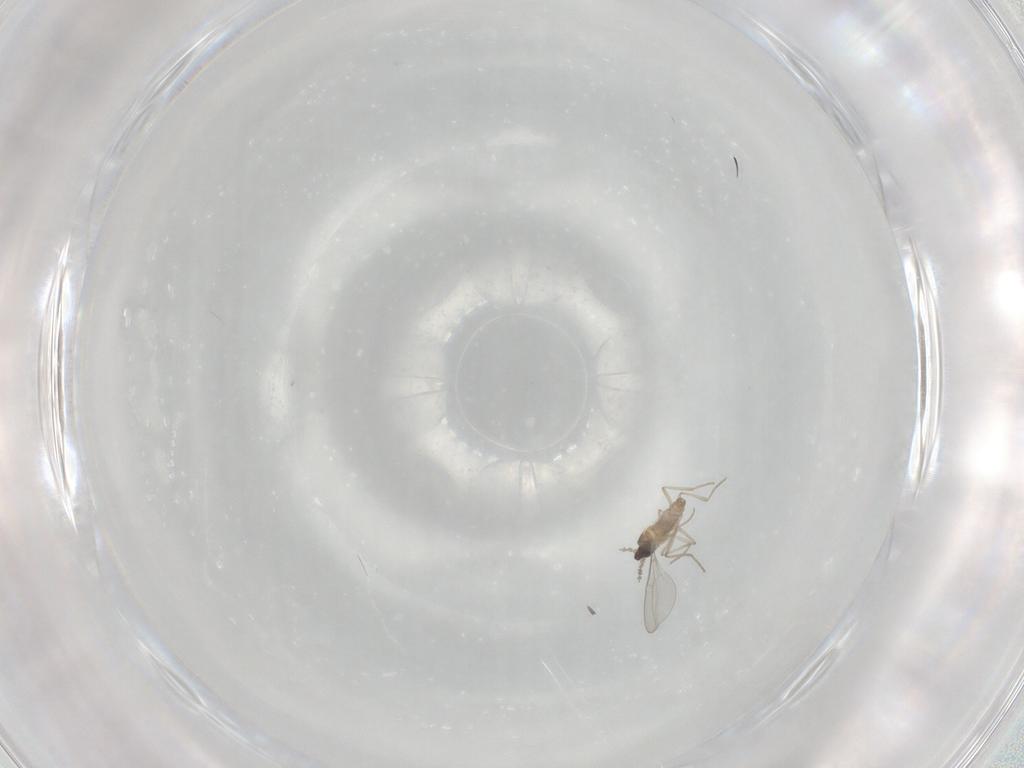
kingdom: Animalia
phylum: Arthropoda
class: Insecta
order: Diptera
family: Cecidomyiidae
